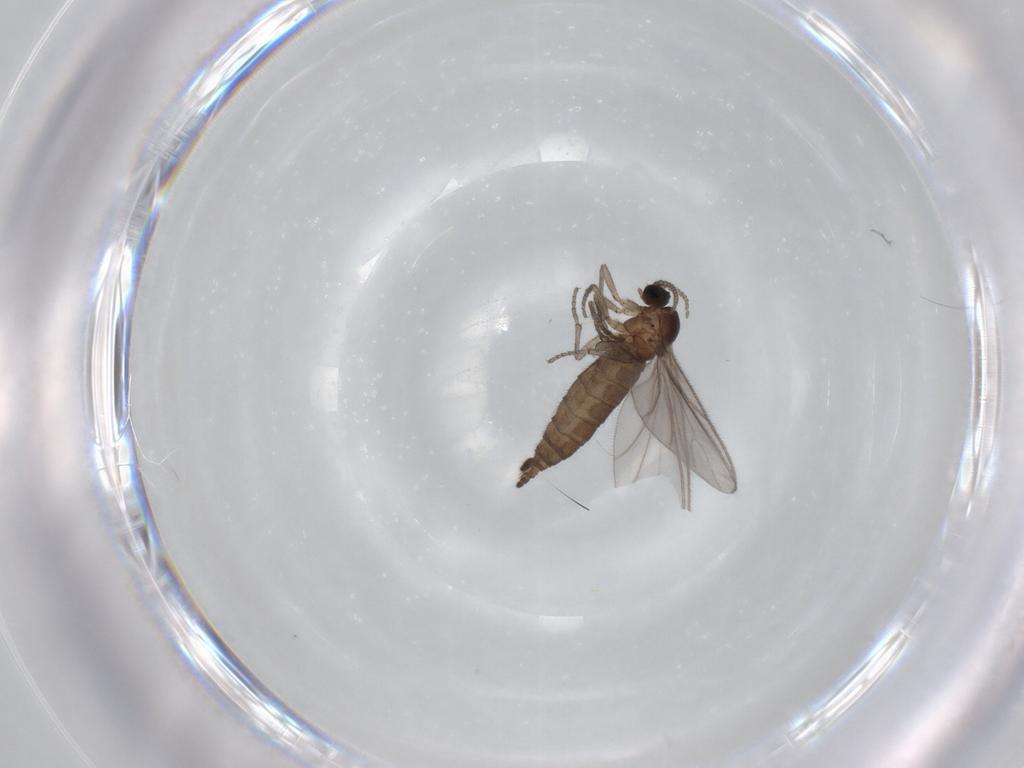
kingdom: Animalia
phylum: Arthropoda
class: Insecta
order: Diptera
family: Sciaridae
